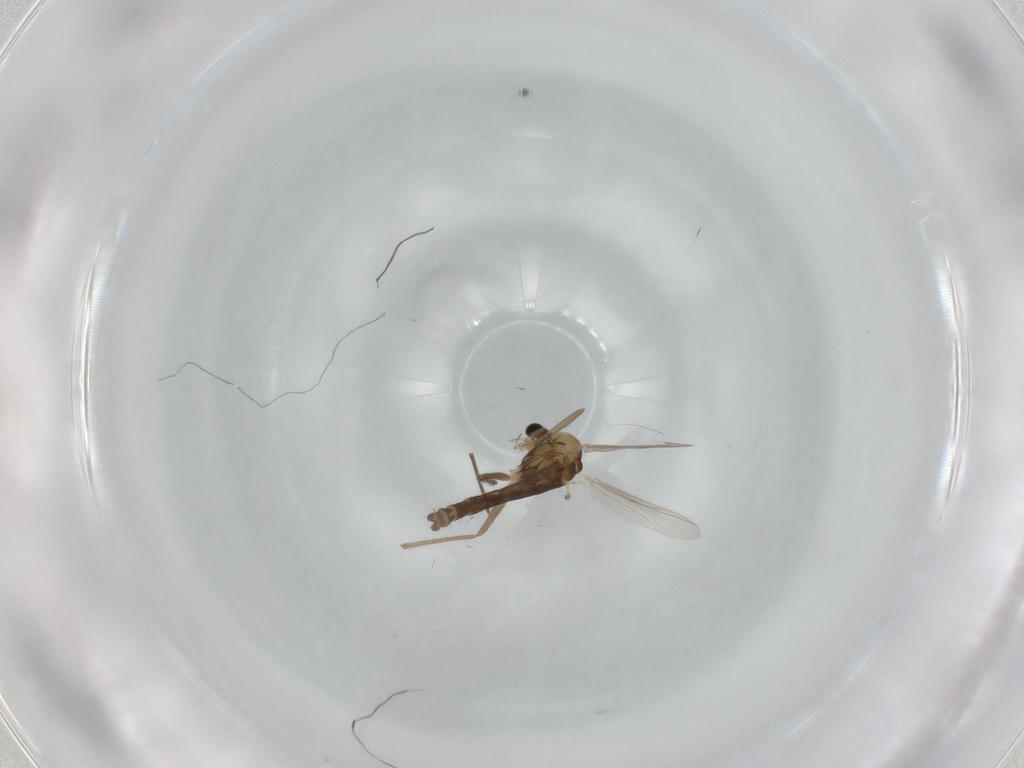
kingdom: Animalia
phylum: Arthropoda
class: Insecta
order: Diptera
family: Chironomidae
